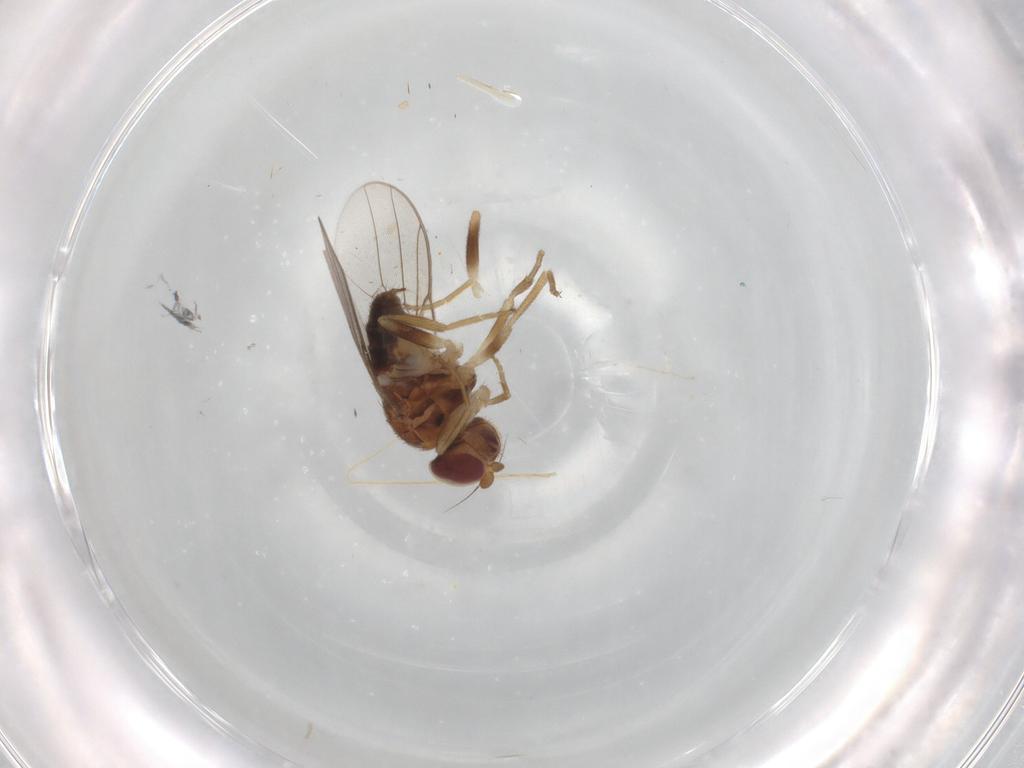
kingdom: Animalia
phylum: Arthropoda
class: Insecta
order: Diptera
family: Chloropidae
